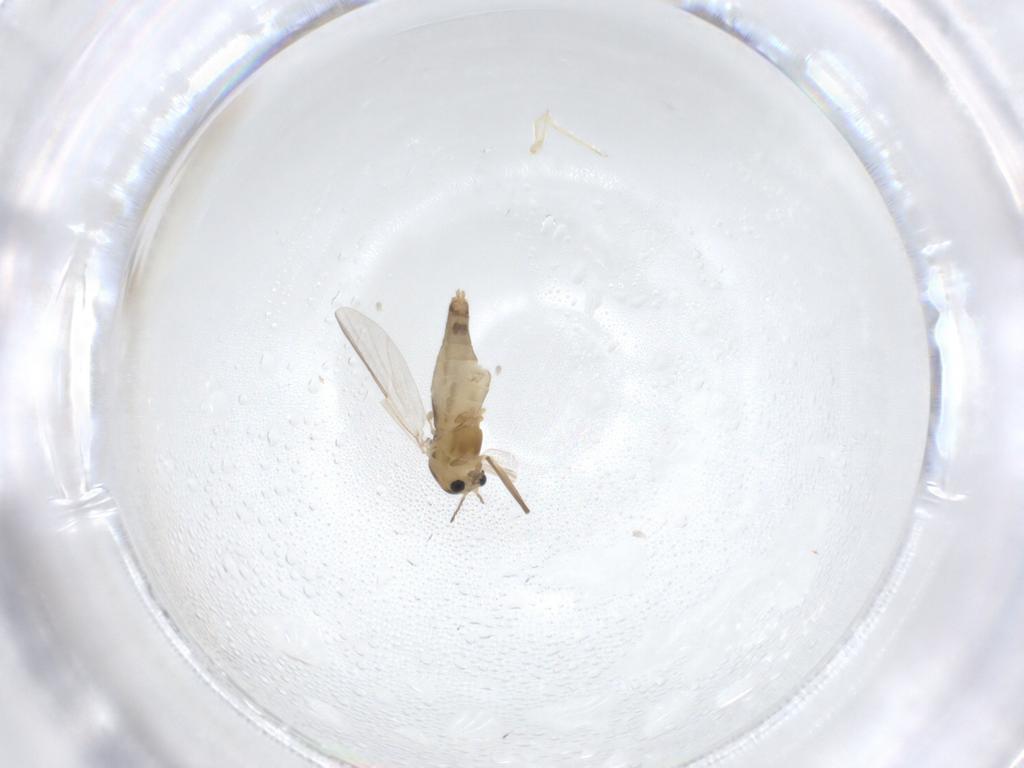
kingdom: Animalia
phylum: Arthropoda
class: Insecta
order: Diptera
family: Chironomidae
